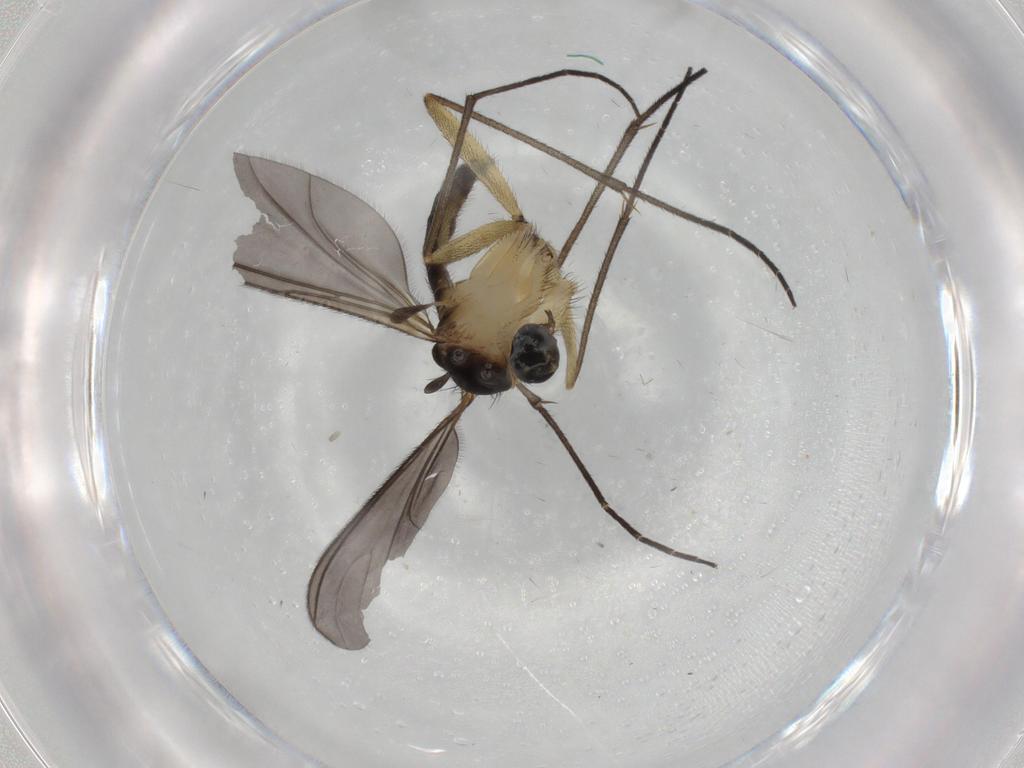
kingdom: Animalia
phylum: Arthropoda
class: Insecta
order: Diptera
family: Sciaridae
